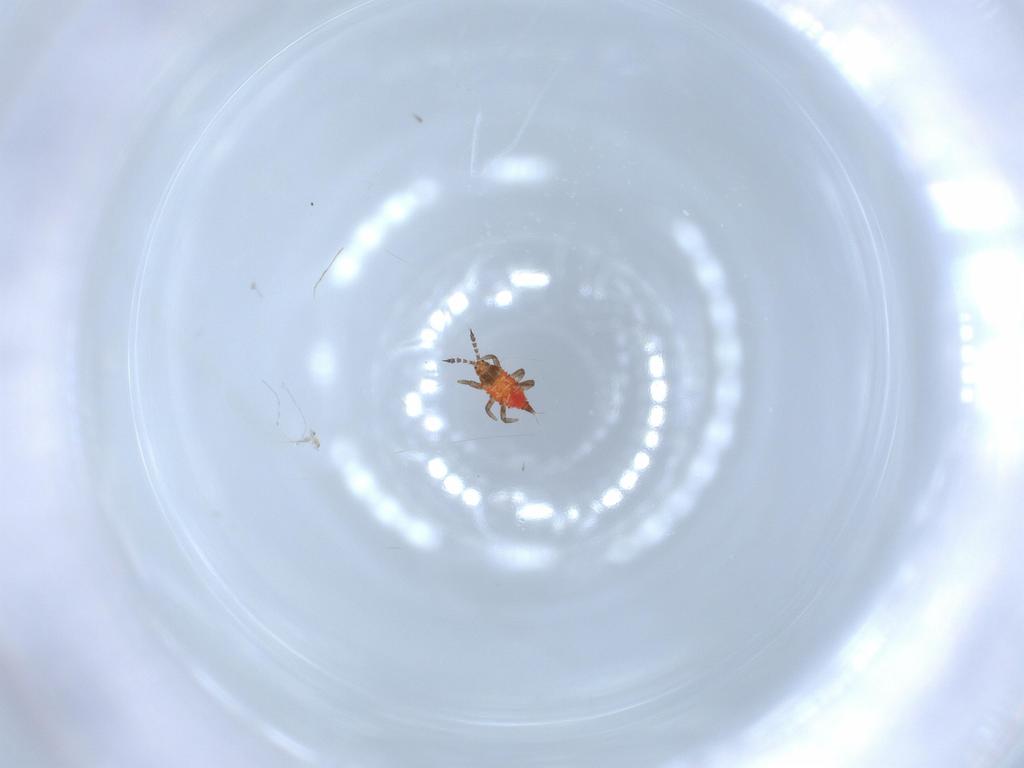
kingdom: Animalia
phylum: Arthropoda
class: Insecta
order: Thysanoptera
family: Phlaeothripidae
